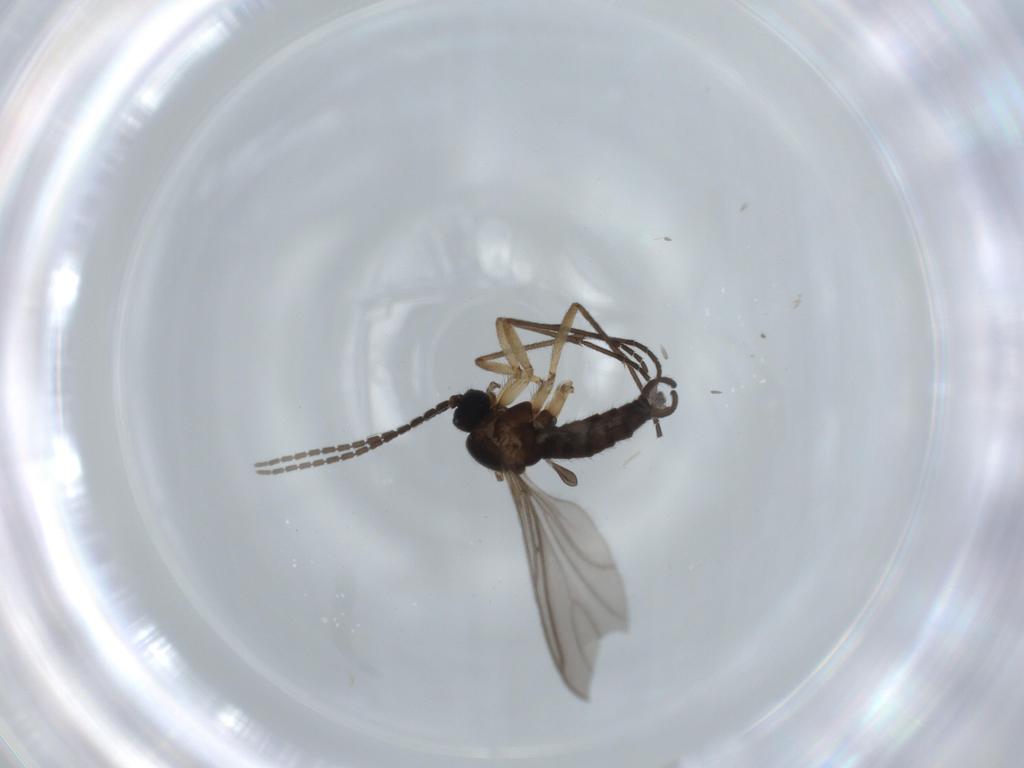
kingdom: Animalia
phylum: Arthropoda
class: Insecta
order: Diptera
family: Sciaridae
